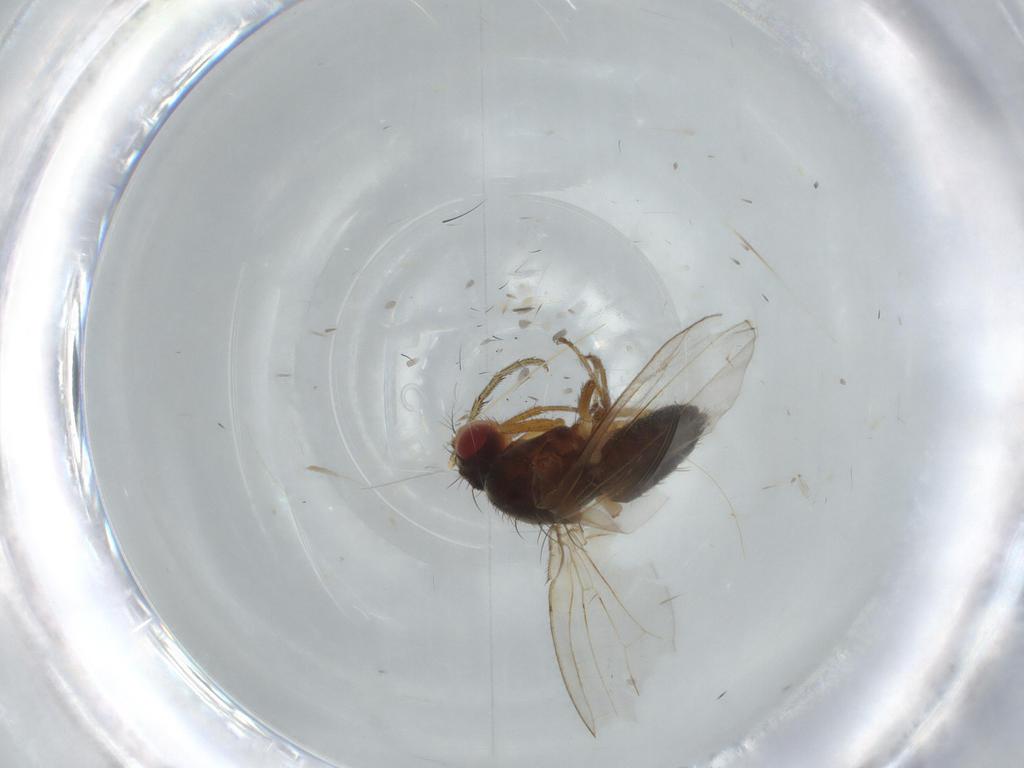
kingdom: Animalia
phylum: Arthropoda
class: Insecta
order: Diptera
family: Drosophilidae
